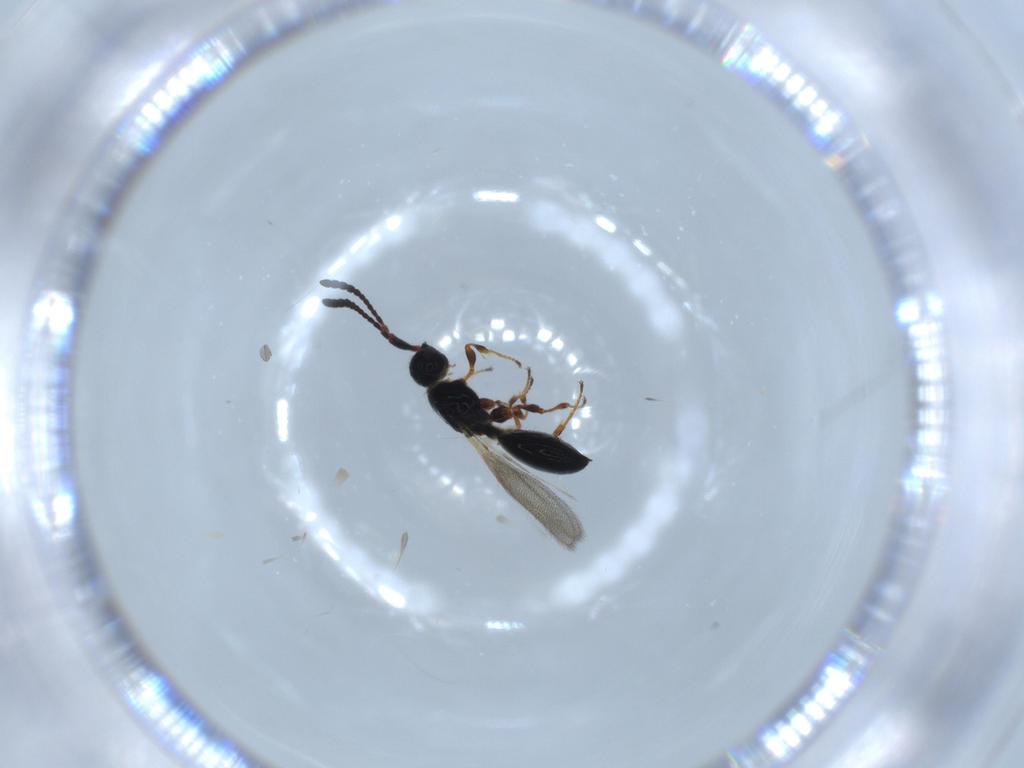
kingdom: Animalia
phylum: Arthropoda
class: Insecta
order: Hymenoptera
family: Diapriidae
